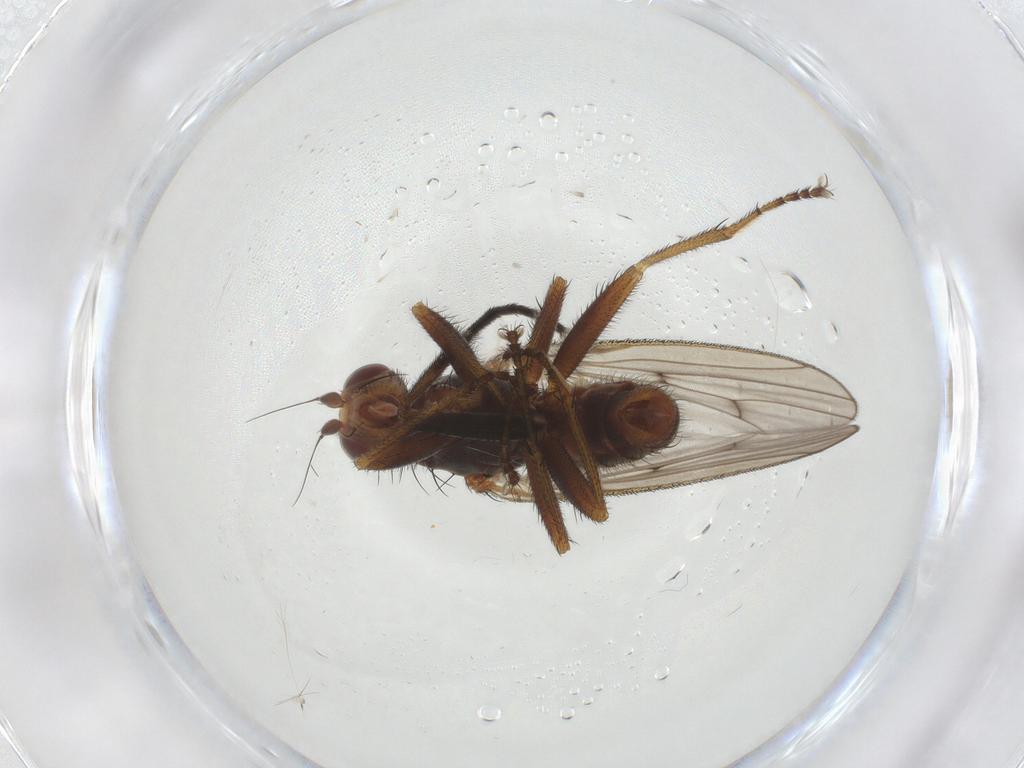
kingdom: Animalia
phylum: Arthropoda
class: Insecta
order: Diptera
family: Heleomyzidae
